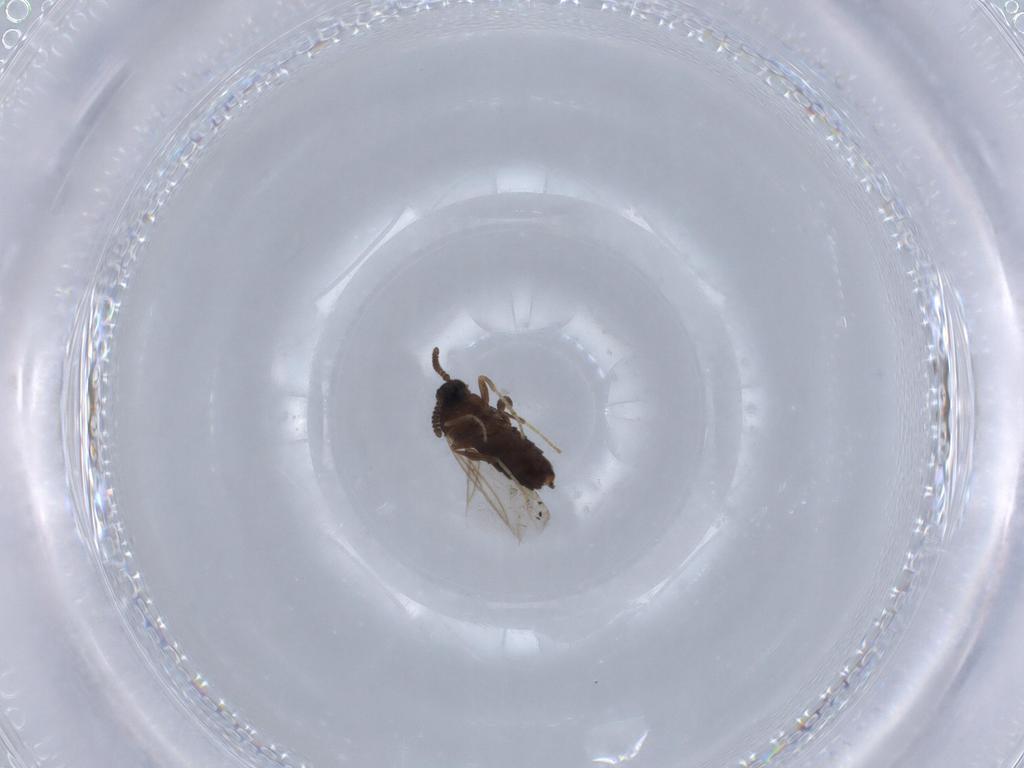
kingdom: Animalia
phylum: Arthropoda
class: Insecta
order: Diptera
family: Hybotidae
